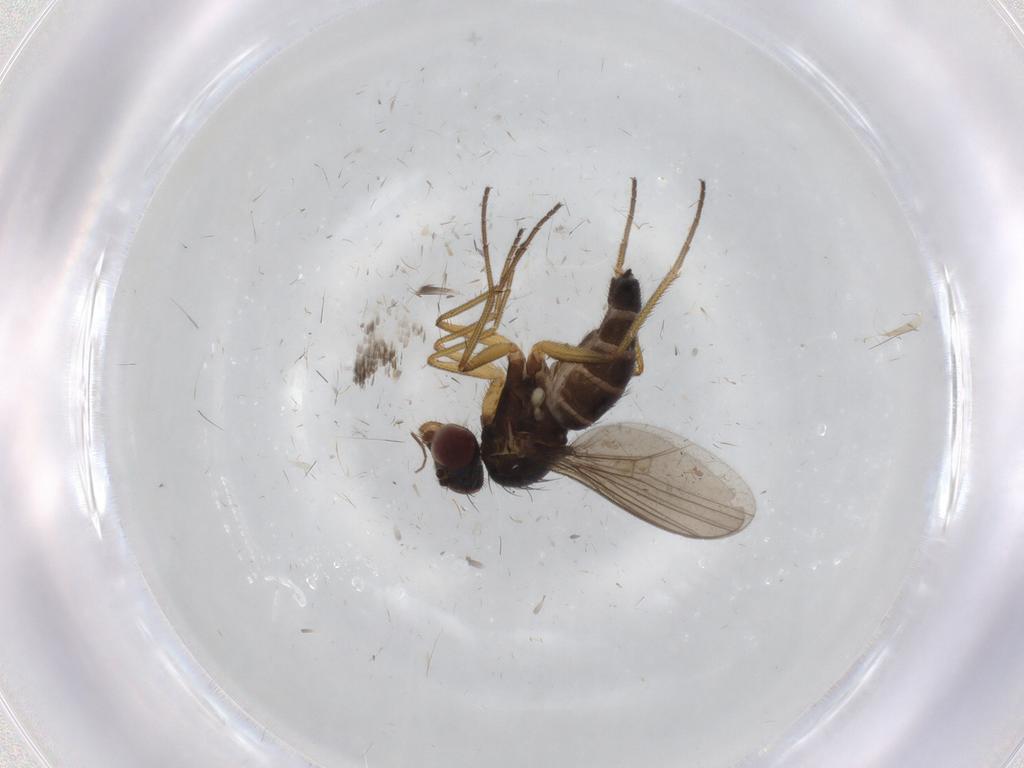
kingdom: Animalia
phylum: Arthropoda
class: Insecta
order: Diptera
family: Dolichopodidae
